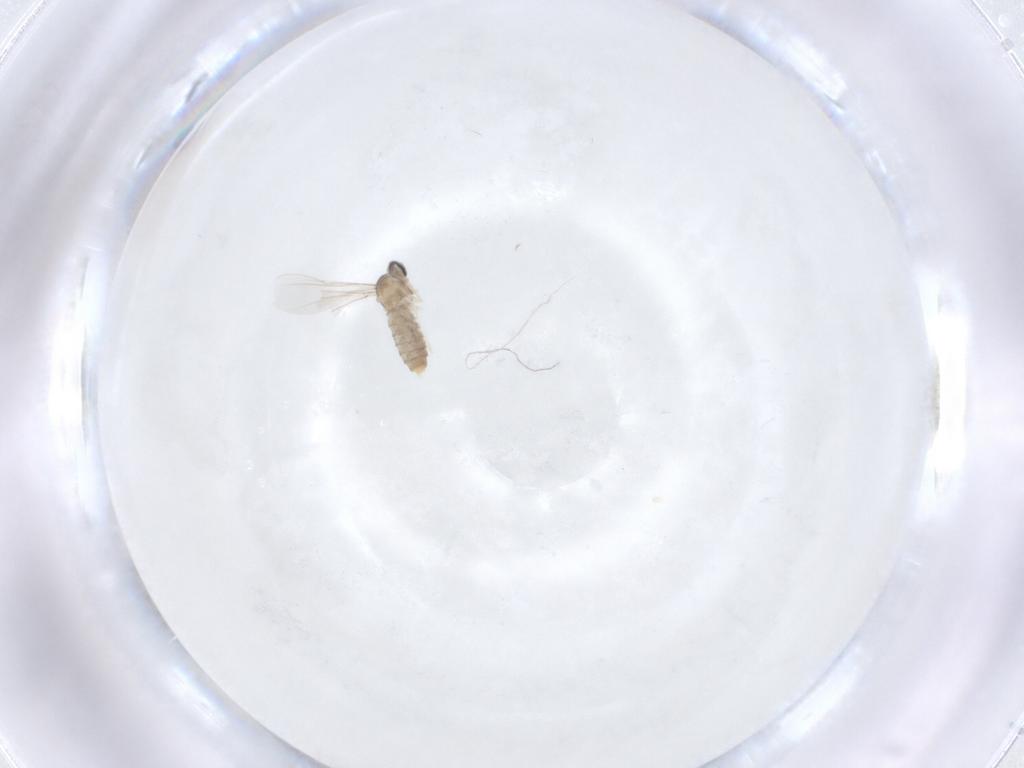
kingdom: Animalia
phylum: Arthropoda
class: Insecta
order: Diptera
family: Cecidomyiidae
